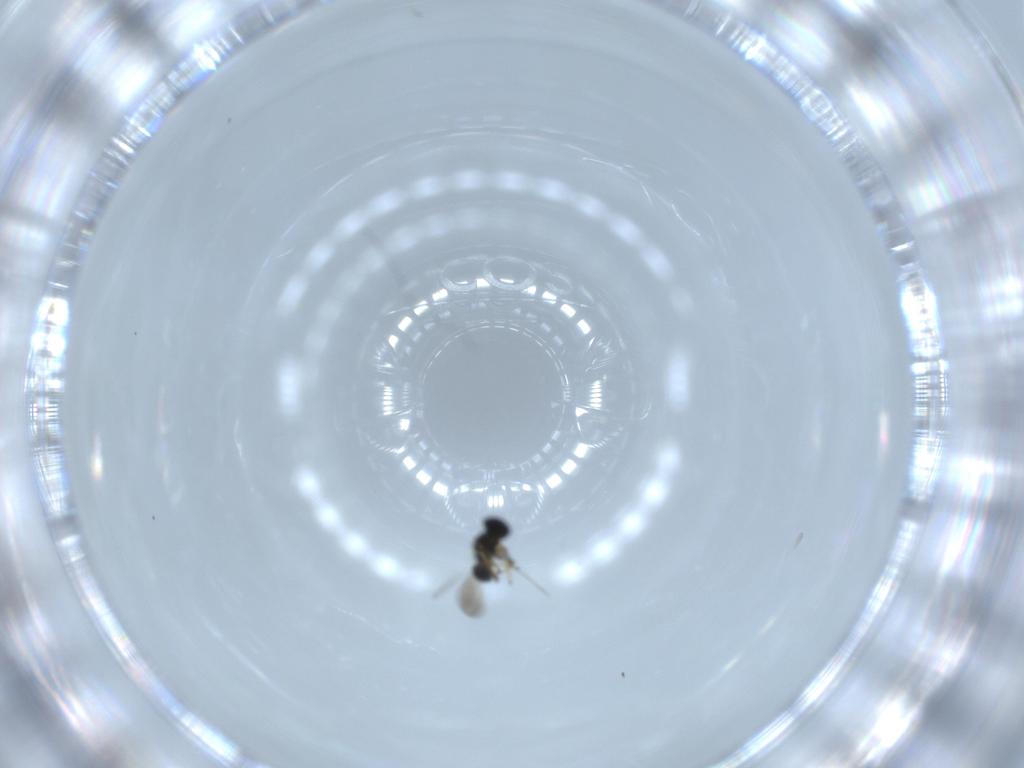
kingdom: Animalia
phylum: Arthropoda
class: Insecta
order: Hymenoptera
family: Platygastridae
